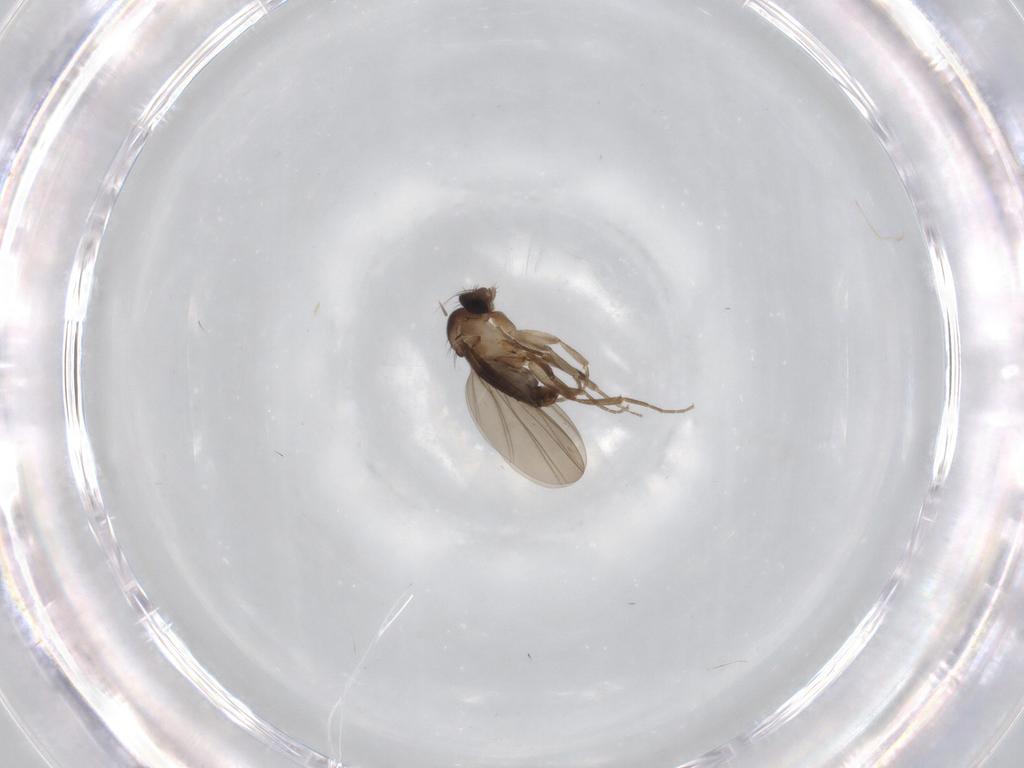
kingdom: Animalia
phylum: Arthropoda
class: Insecta
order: Diptera
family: Phoridae
